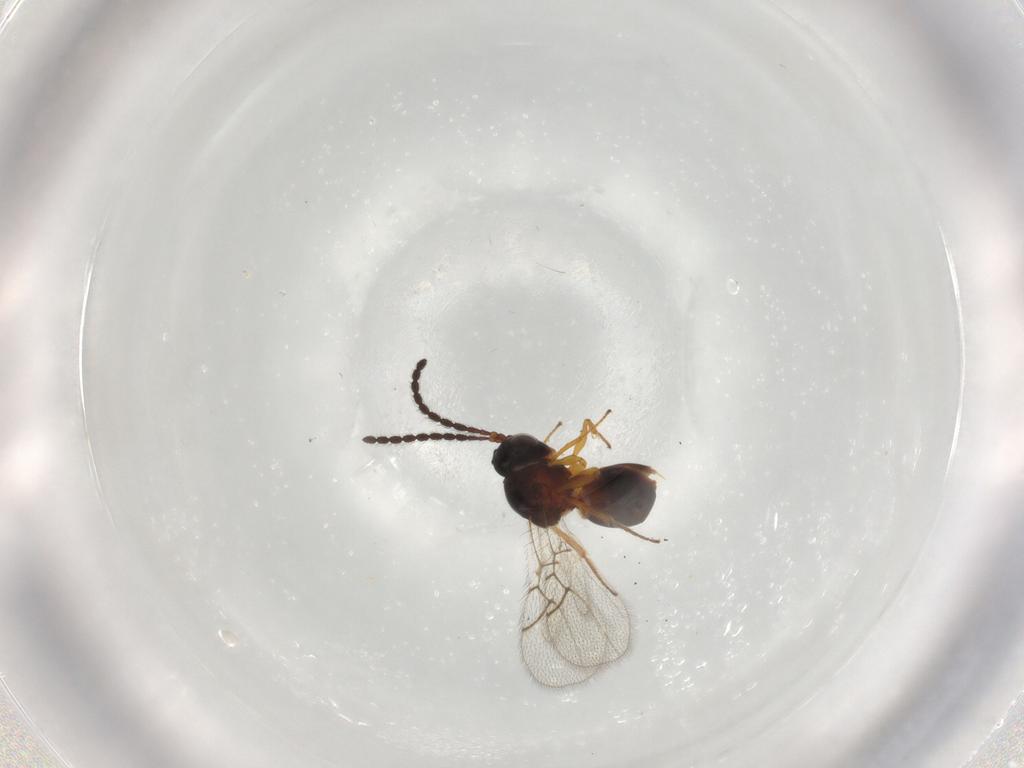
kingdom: Animalia
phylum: Arthropoda
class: Insecta
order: Hymenoptera
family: Figitidae
